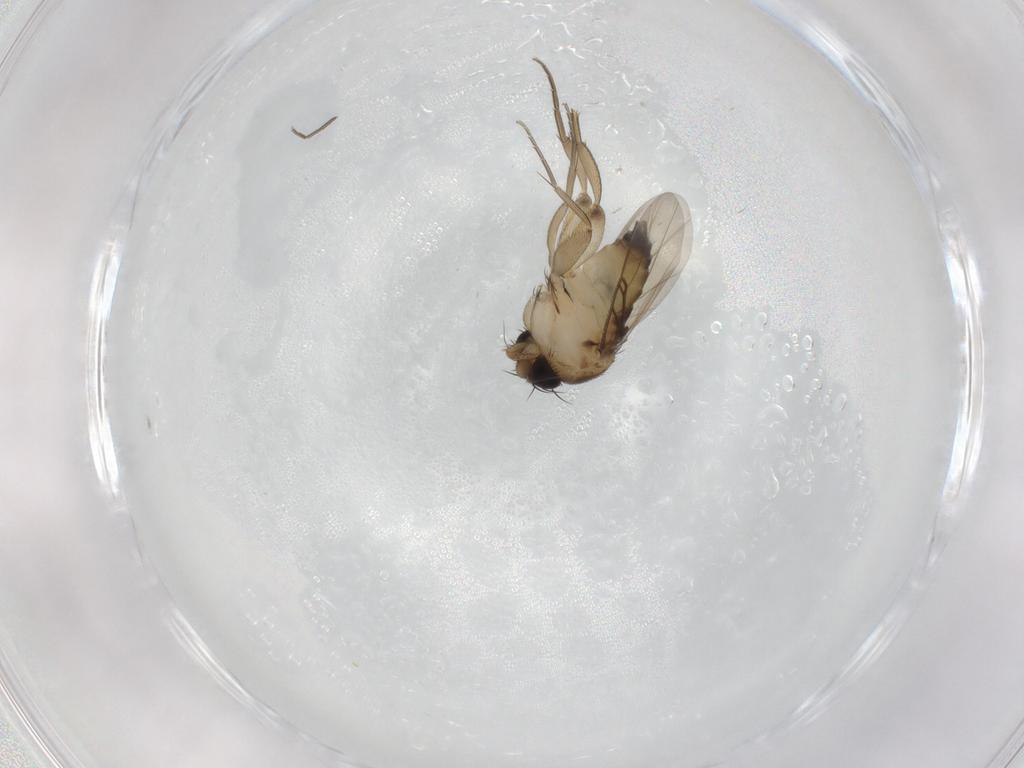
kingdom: Animalia
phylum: Arthropoda
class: Insecta
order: Diptera
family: Phoridae
